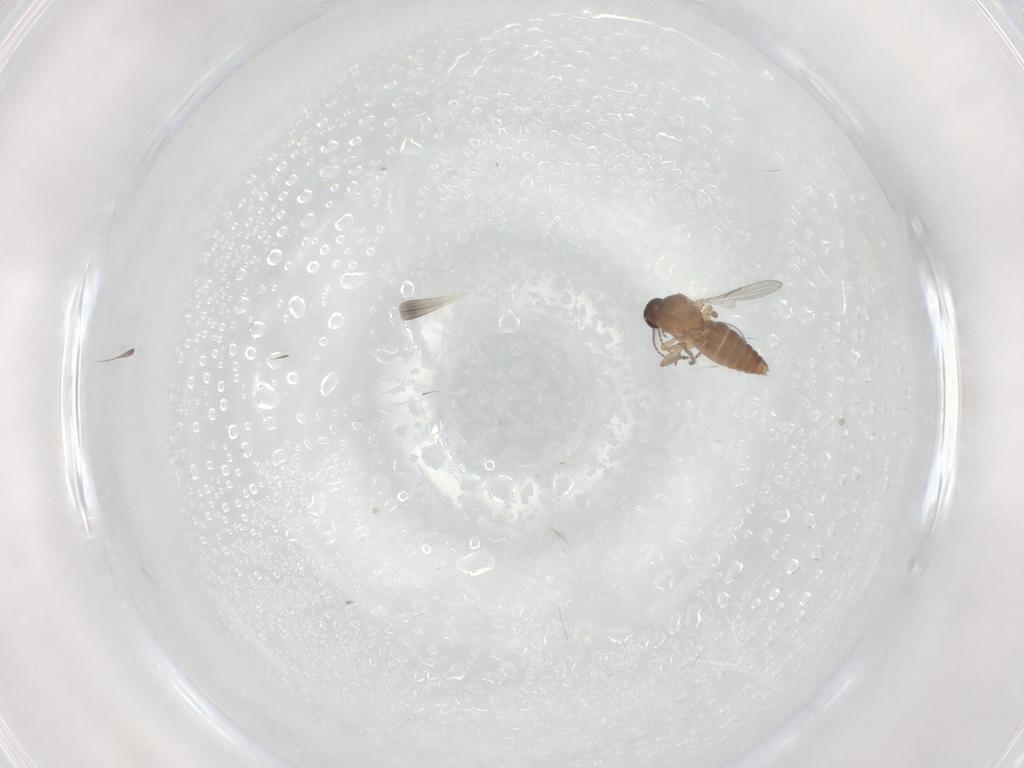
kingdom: Animalia
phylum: Arthropoda
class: Insecta
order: Diptera
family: Ceratopogonidae
